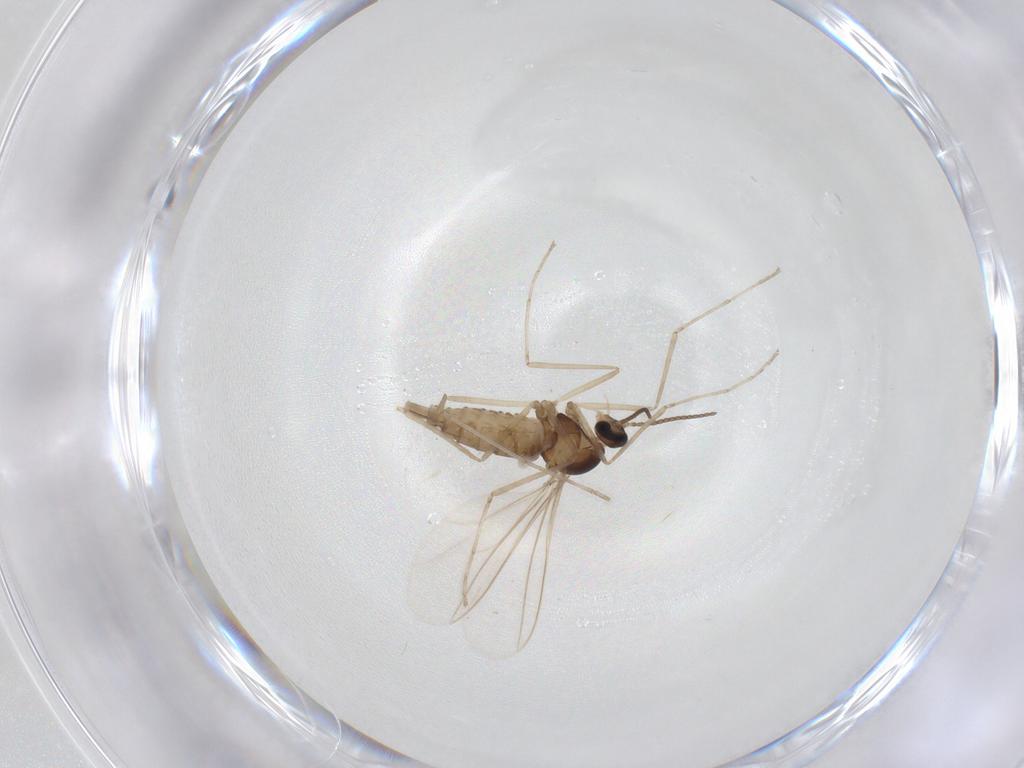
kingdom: Animalia
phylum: Arthropoda
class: Insecta
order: Diptera
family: Cecidomyiidae
